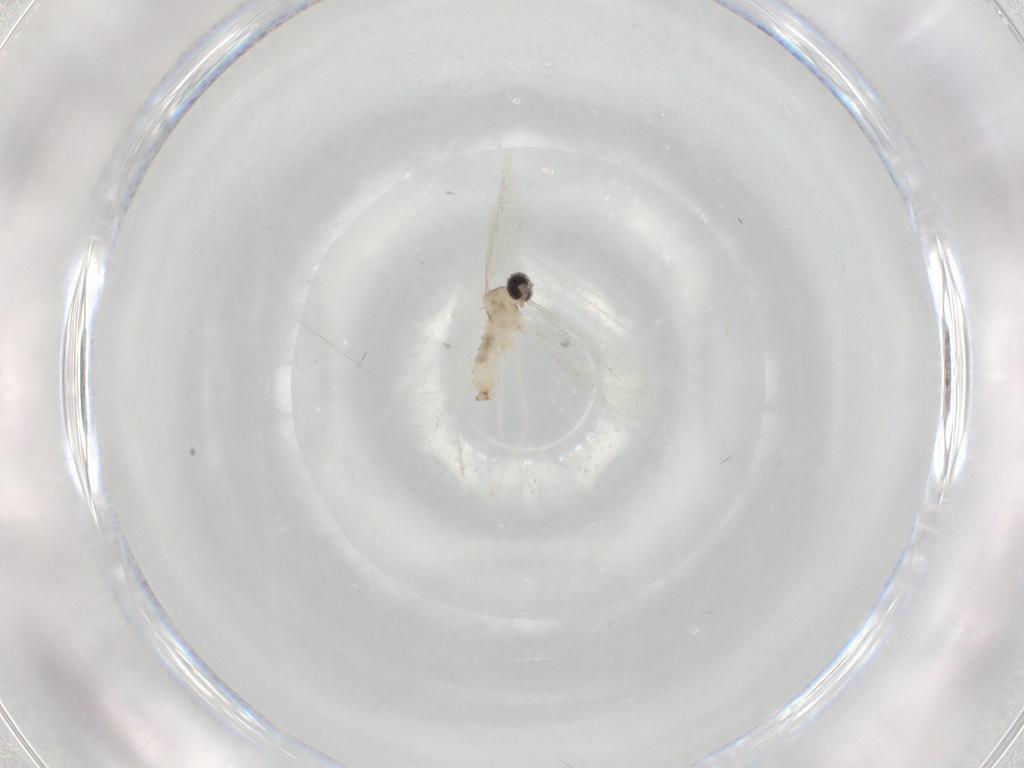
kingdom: Animalia
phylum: Arthropoda
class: Insecta
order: Diptera
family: Cecidomyiidae
